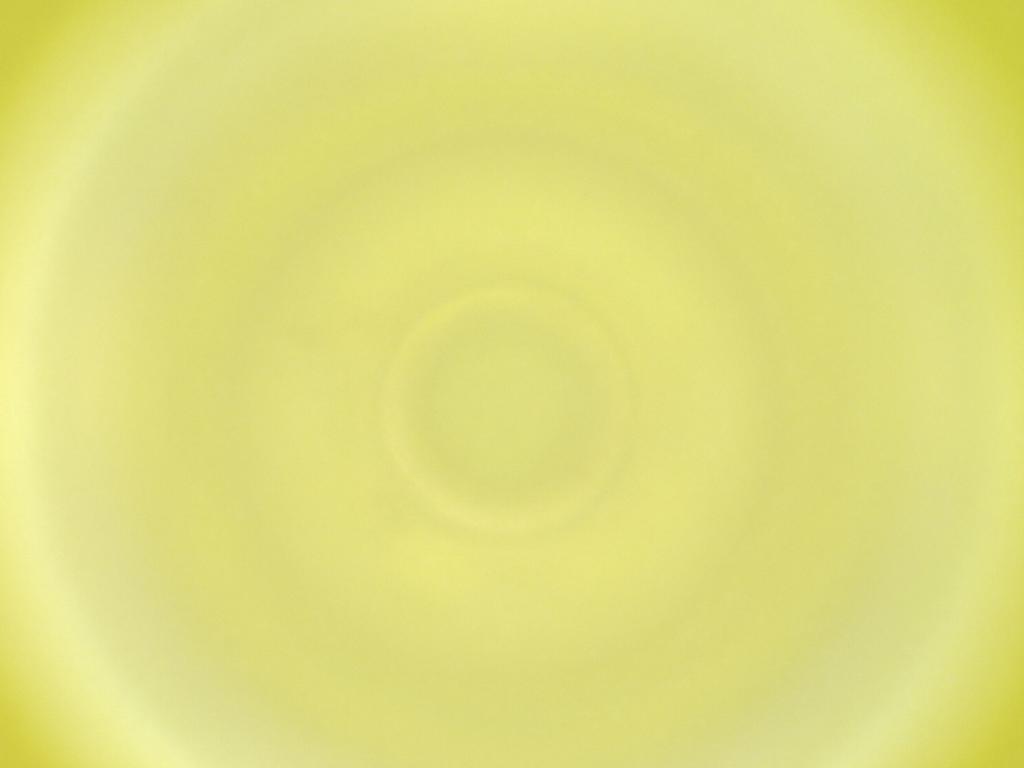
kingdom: Animalia
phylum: Arthropoda
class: Insecta
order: Diptera
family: Cecidomyiidae
